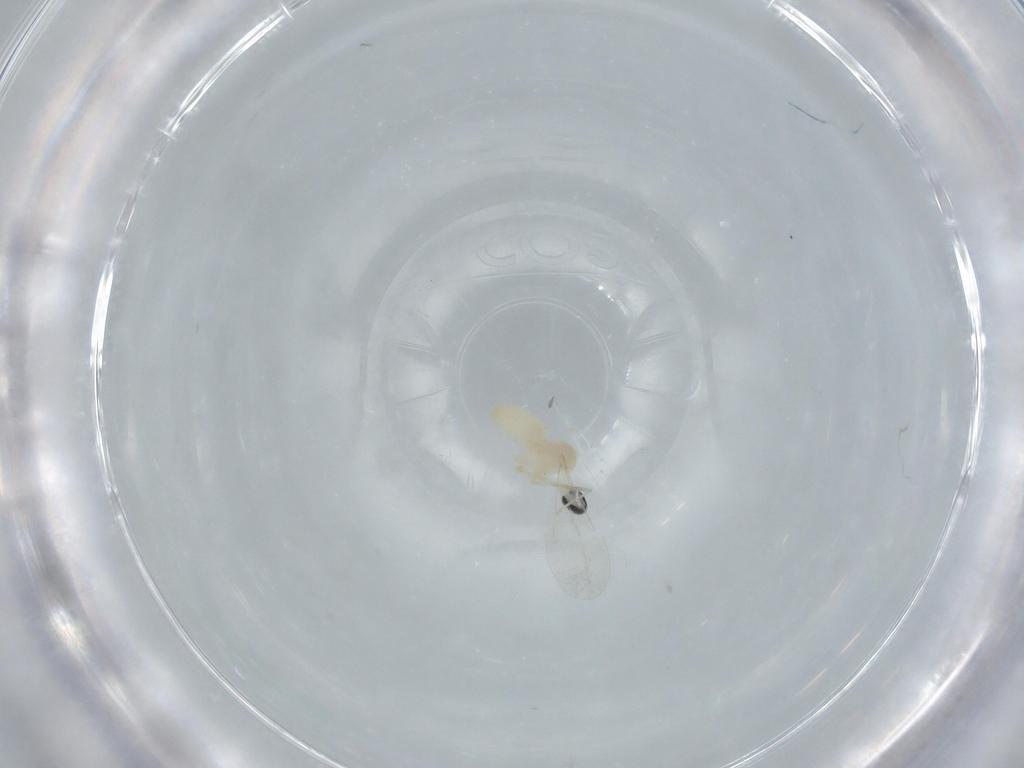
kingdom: Animalia
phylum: Arthropoda
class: Insecta
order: Diptera
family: Cecidomyiidae
